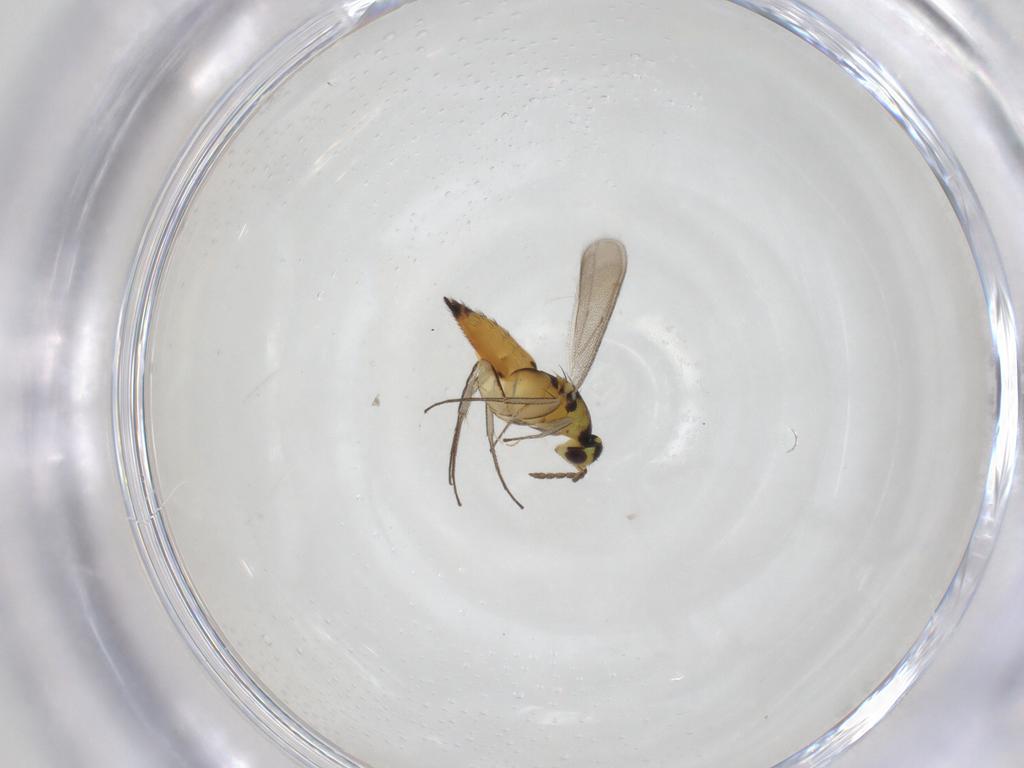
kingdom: Animalia
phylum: Arthropoda
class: Insecta
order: Hymenoptera
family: Eulophidae
